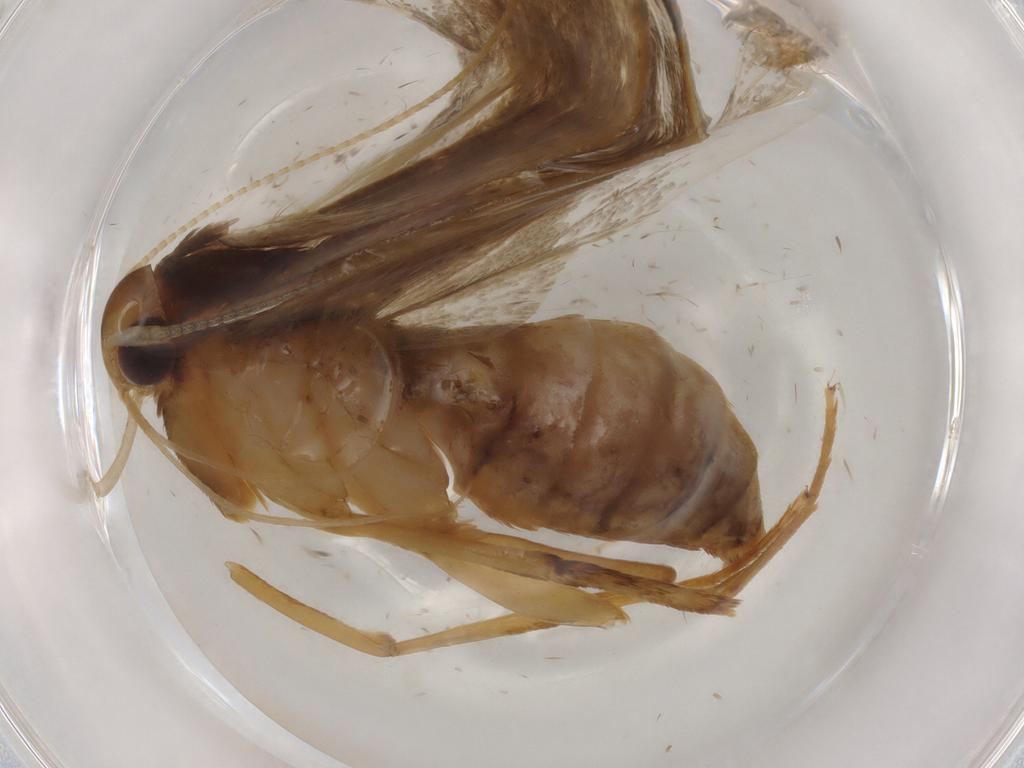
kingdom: Animalia
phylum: Arthropoda
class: Insecta
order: Lepidoptera
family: Lecithoceridae
